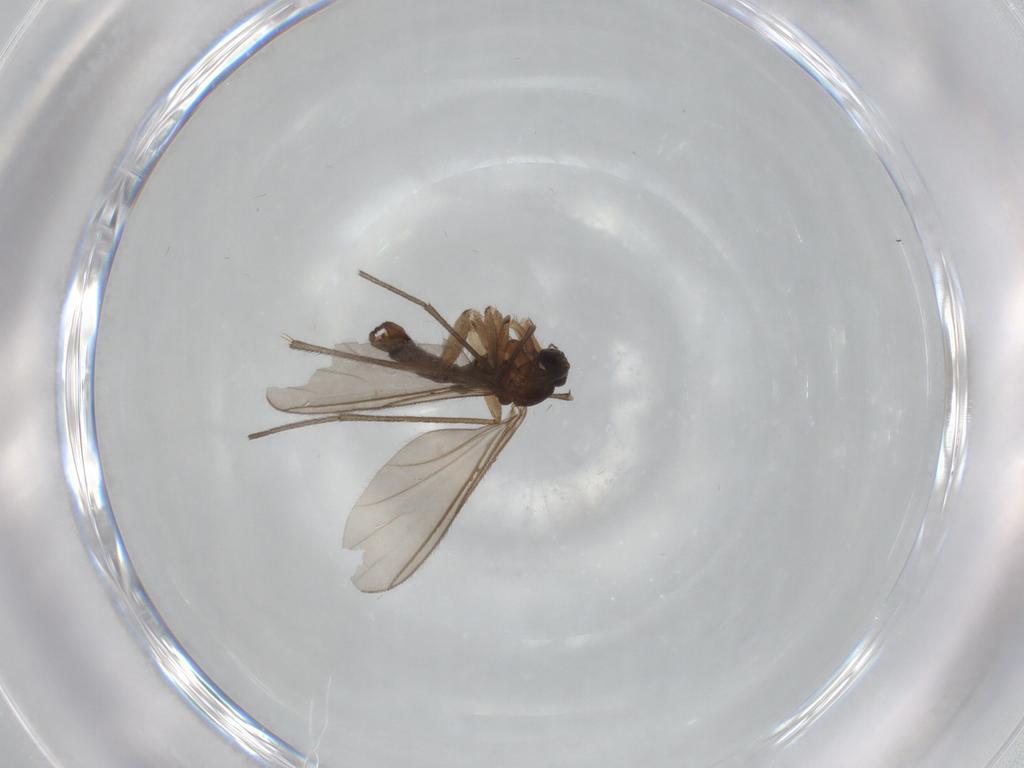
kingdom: Animalia
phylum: Arthropoda
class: Insecta
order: Diptera
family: Sciaridae
